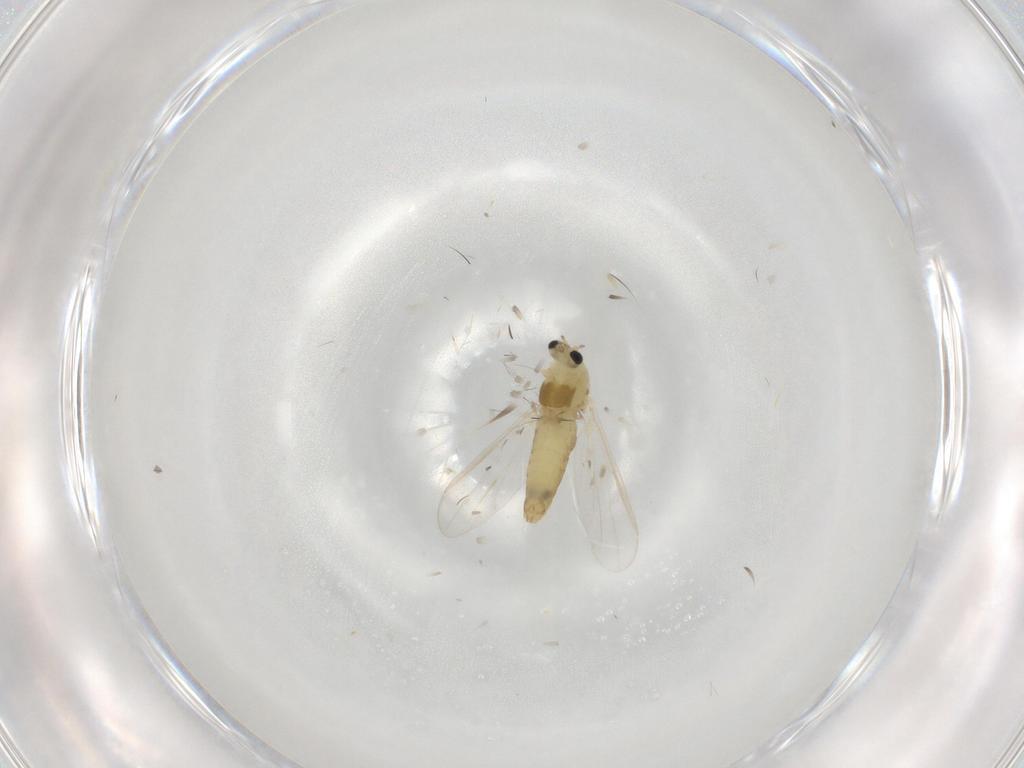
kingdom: Animalia
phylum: Arthropoda
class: Insecta
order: Diptera
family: Chironomidae
